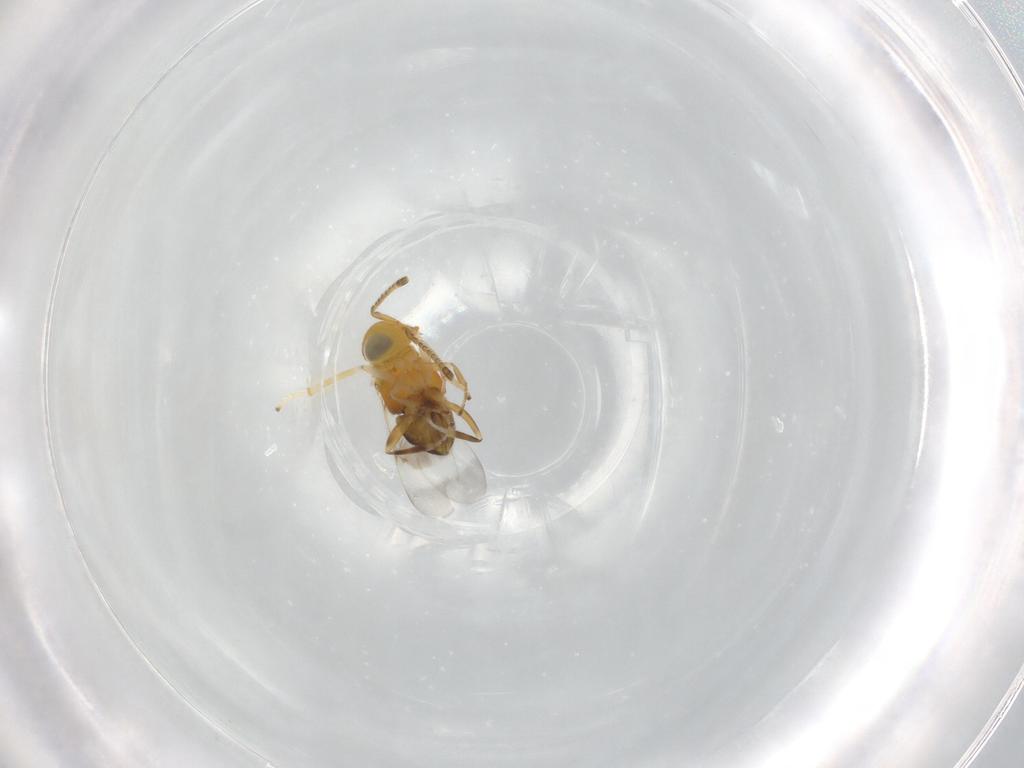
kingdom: Animalia
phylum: Arthropoda
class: Insecta
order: Hymenoptera
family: Encyrtidae
